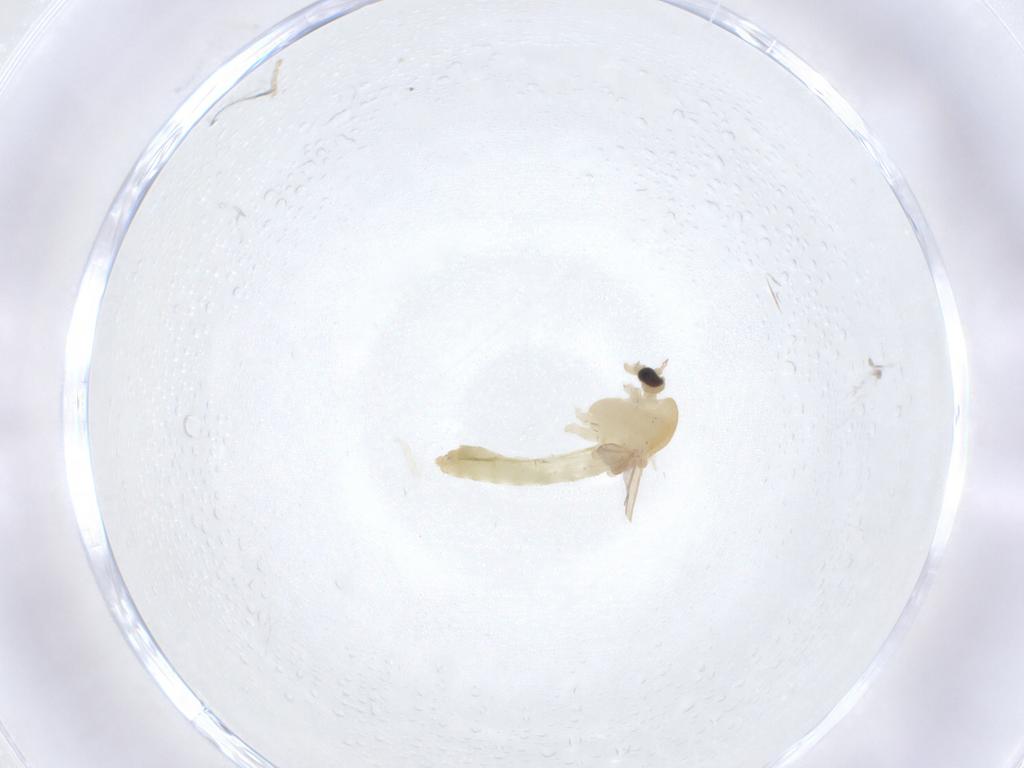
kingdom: Animalia
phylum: Arthropoda
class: Insecta
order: Diptera
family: Chironomidae
